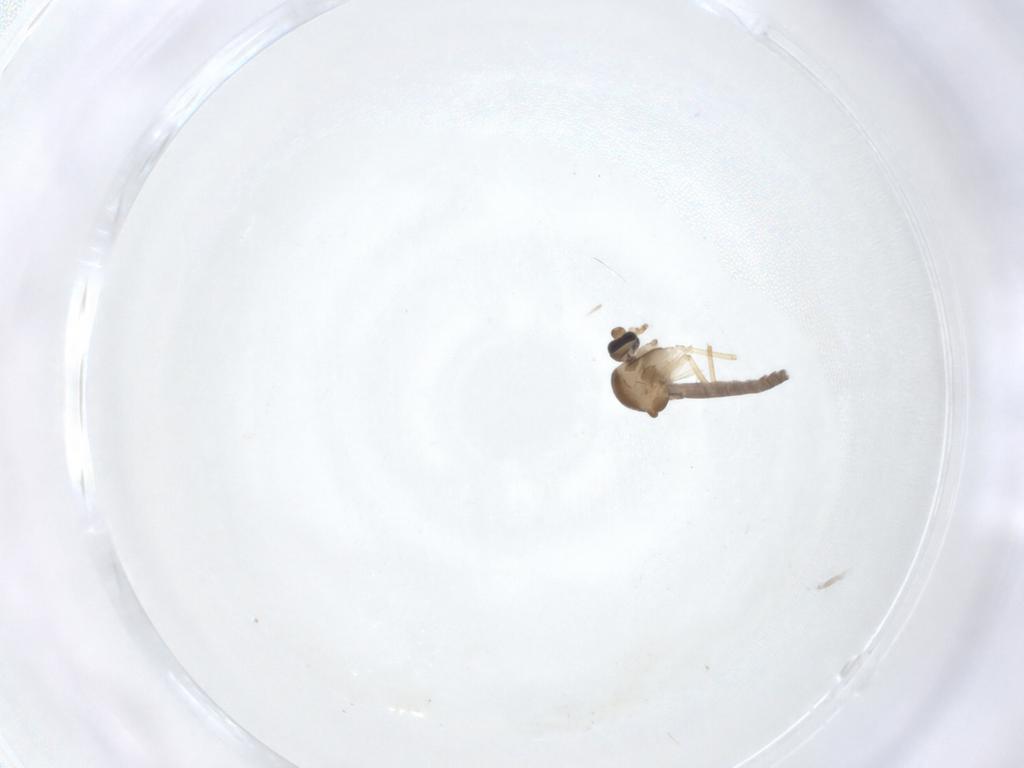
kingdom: Animalia
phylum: Arthropoda
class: Insecta
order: Diptera
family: Ceratopogonidae
